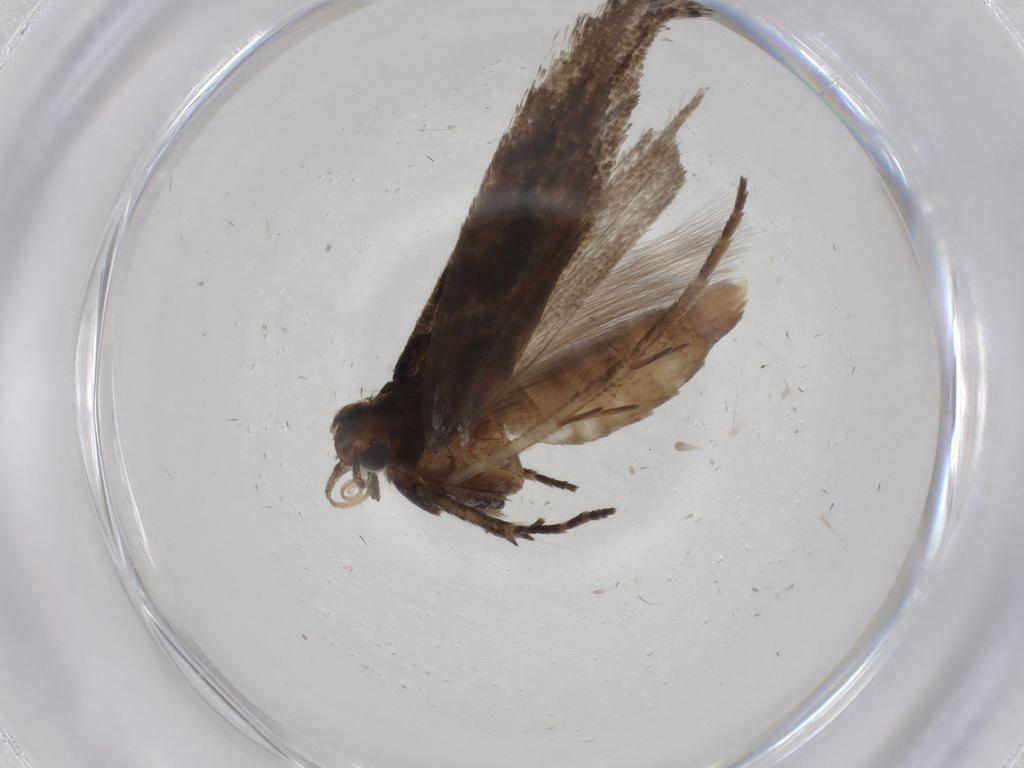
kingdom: Animalia
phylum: Arthropoda
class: Insecta
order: Lepidoptera
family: Gelechiidae
